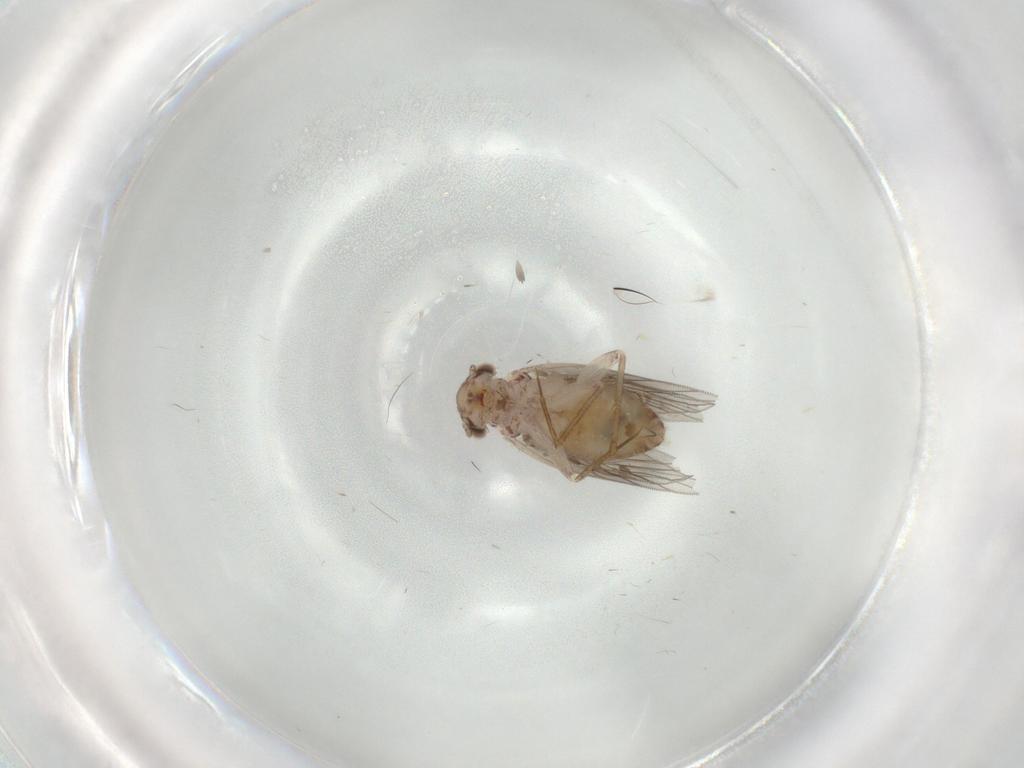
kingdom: Animalia
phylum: Arthropoda
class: Insecta
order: Psocodea
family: Lepidopsocidae
